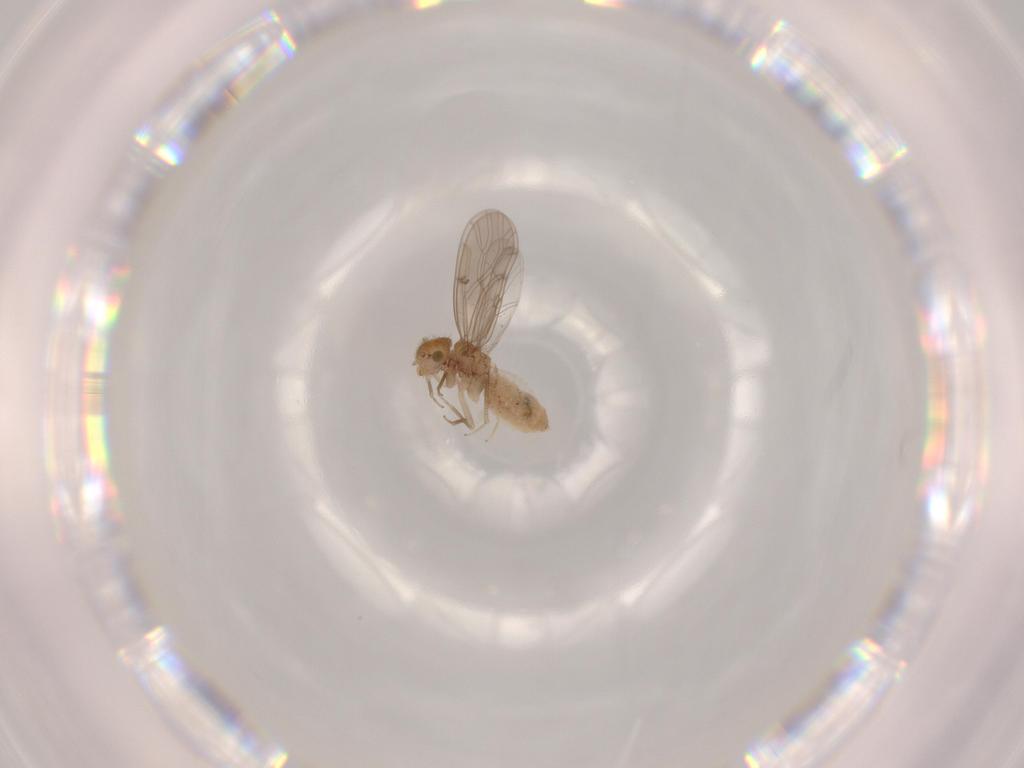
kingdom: Animalia
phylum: Arthropoda
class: Insecta
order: Psocodea
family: Ectopsocidae
